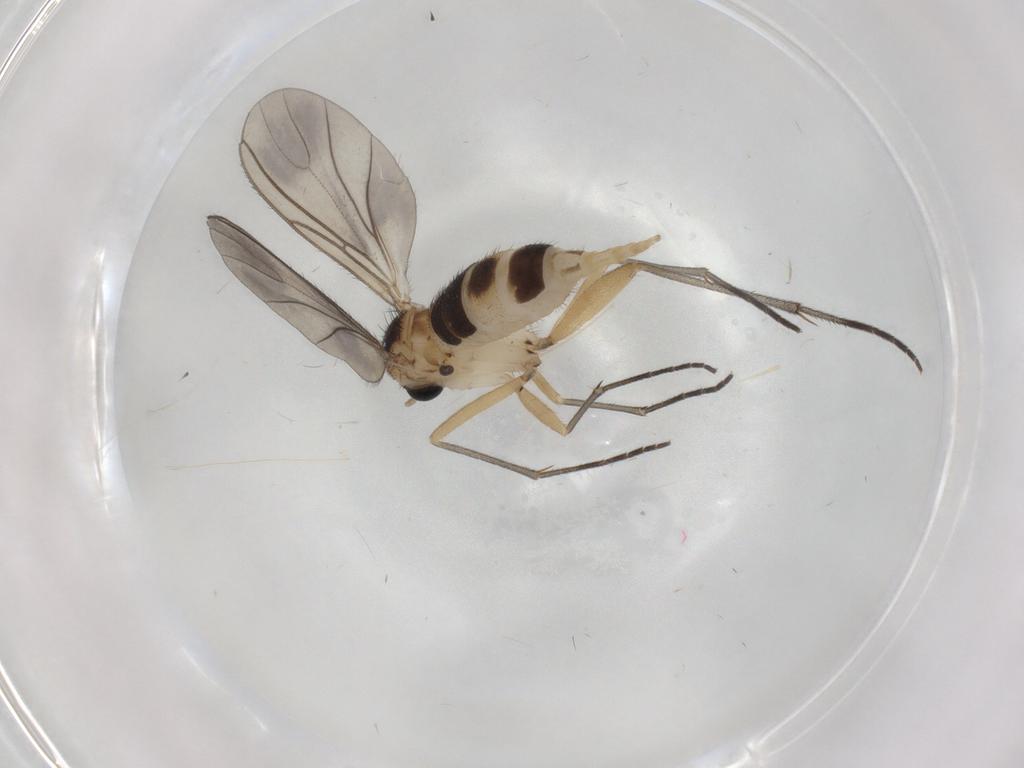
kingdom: Animalia
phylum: Arthropoda
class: Insecta
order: Diptera
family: Sciaridae
